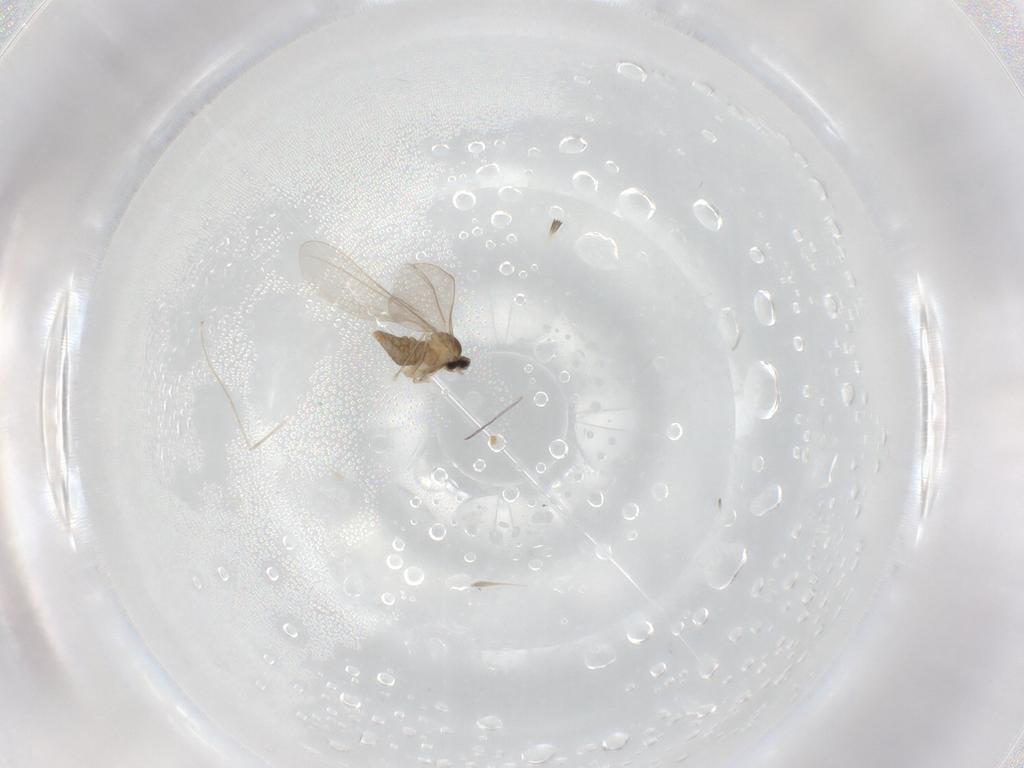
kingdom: Animalia
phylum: Arthropoda
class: Insecta
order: Diptera
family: Cecidomyiidae
